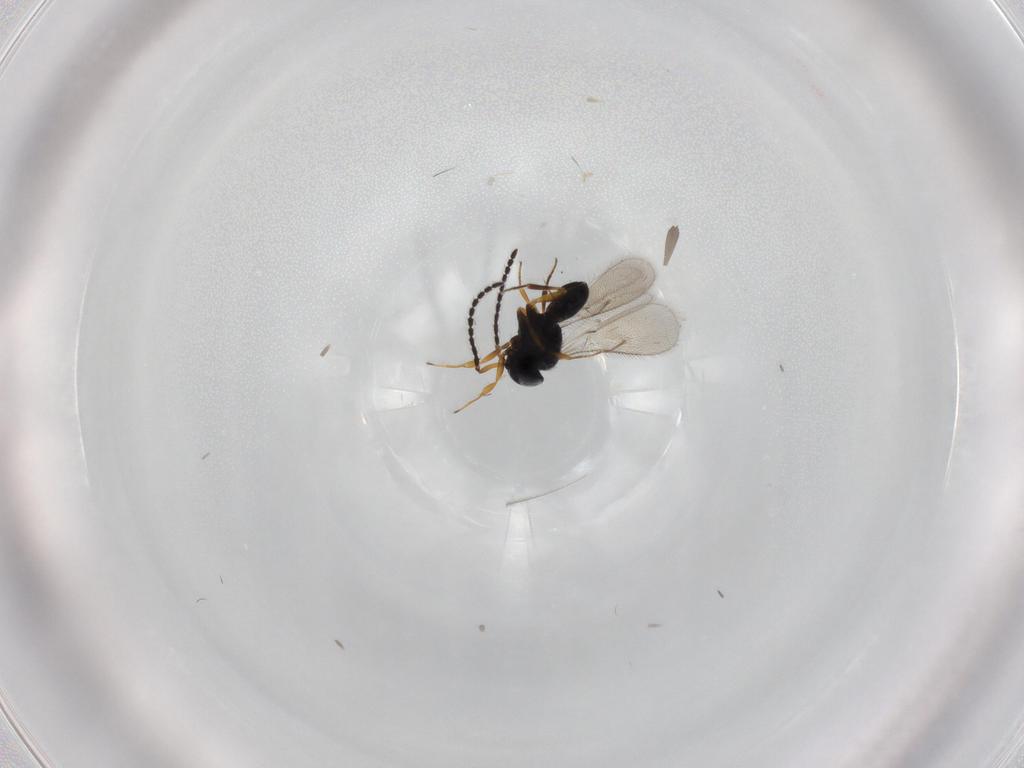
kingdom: Animalia
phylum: Arthropoda
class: Insecta
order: Hymenoptera
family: Scelionidae
